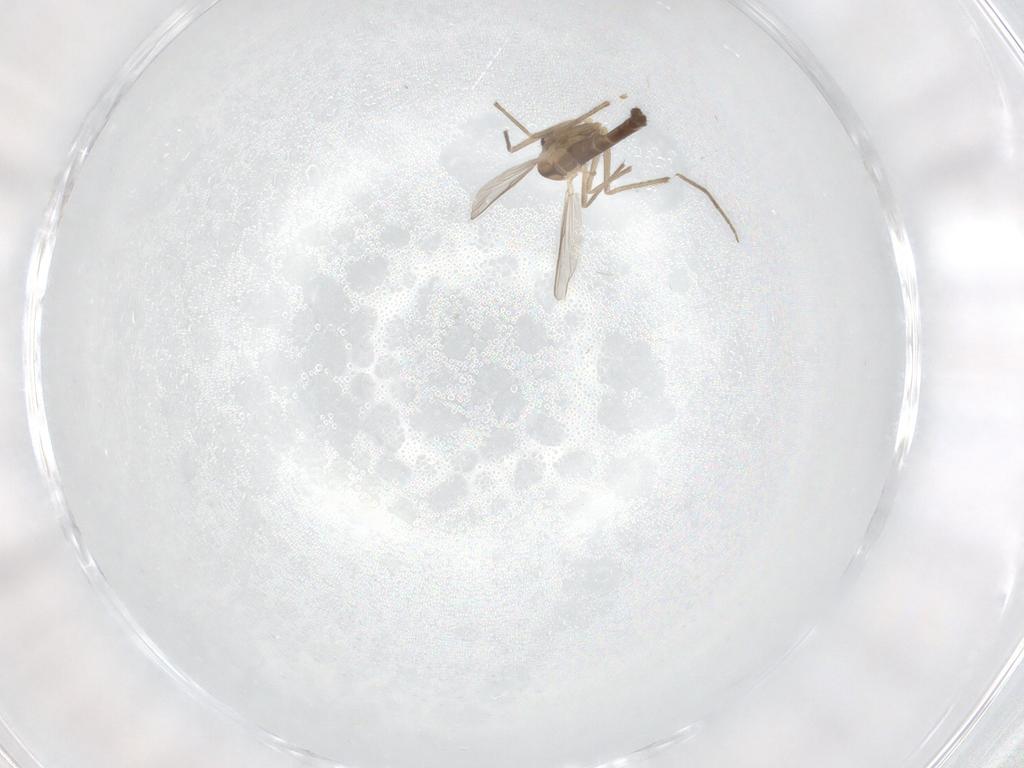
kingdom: Animalia
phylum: Arthropoda
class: Insecta
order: Diptera
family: Chironomidae
